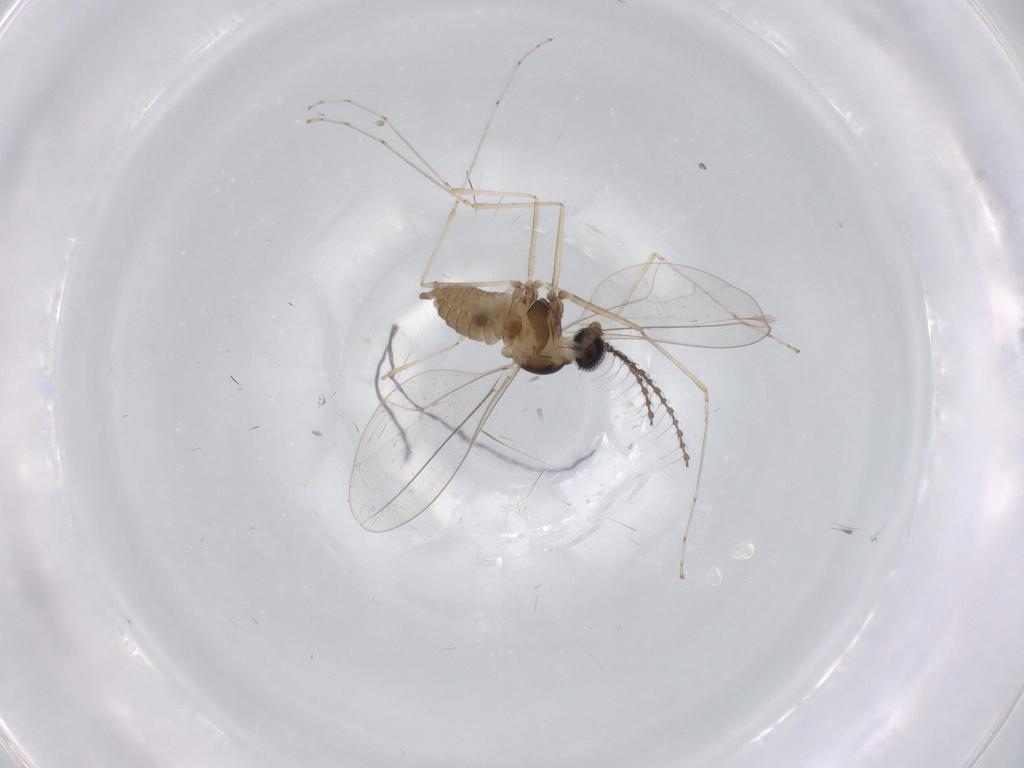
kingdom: Animalia
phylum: Arthropoda
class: Insecta
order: Diptera
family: Cecidomyiidae
